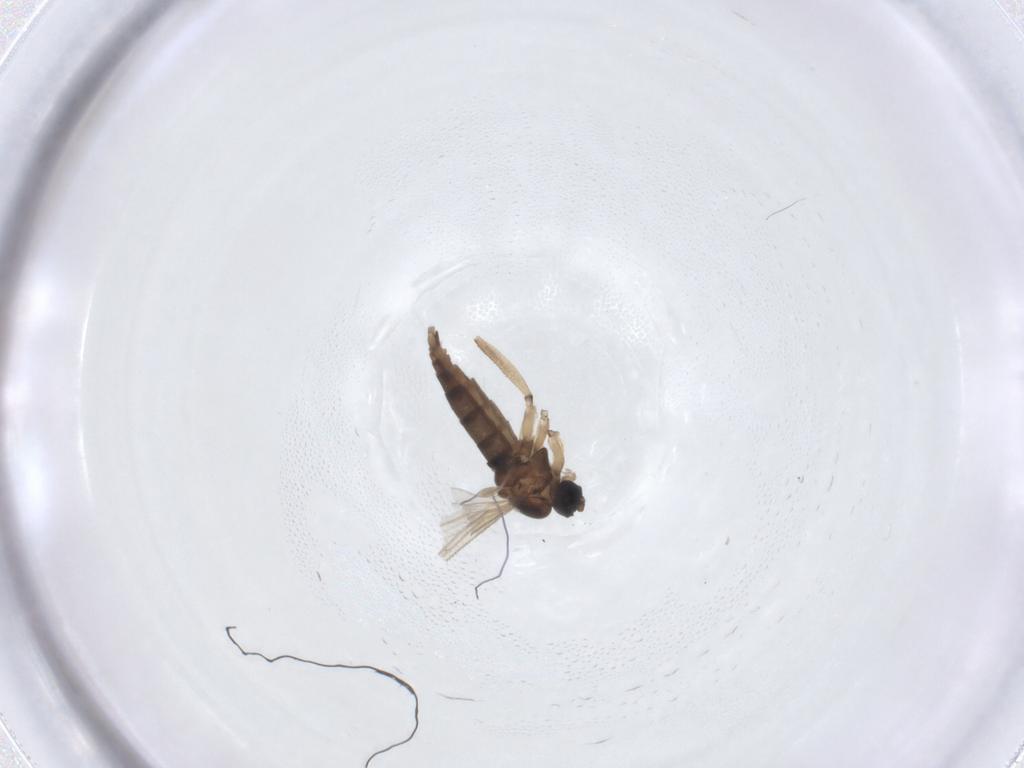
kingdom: Animalia
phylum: Arthropoda
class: Insecta
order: Diptera
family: Sciaridae
